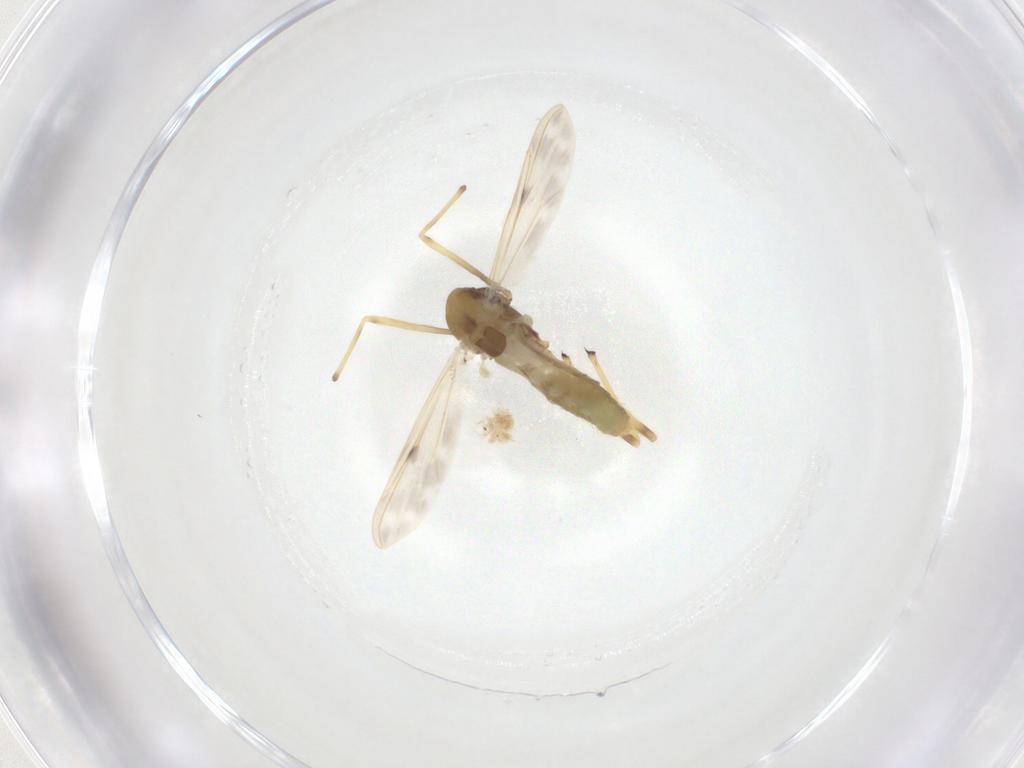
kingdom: Animalia
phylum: Arthropoda
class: Insecta
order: Diptera
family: Chironomidae
